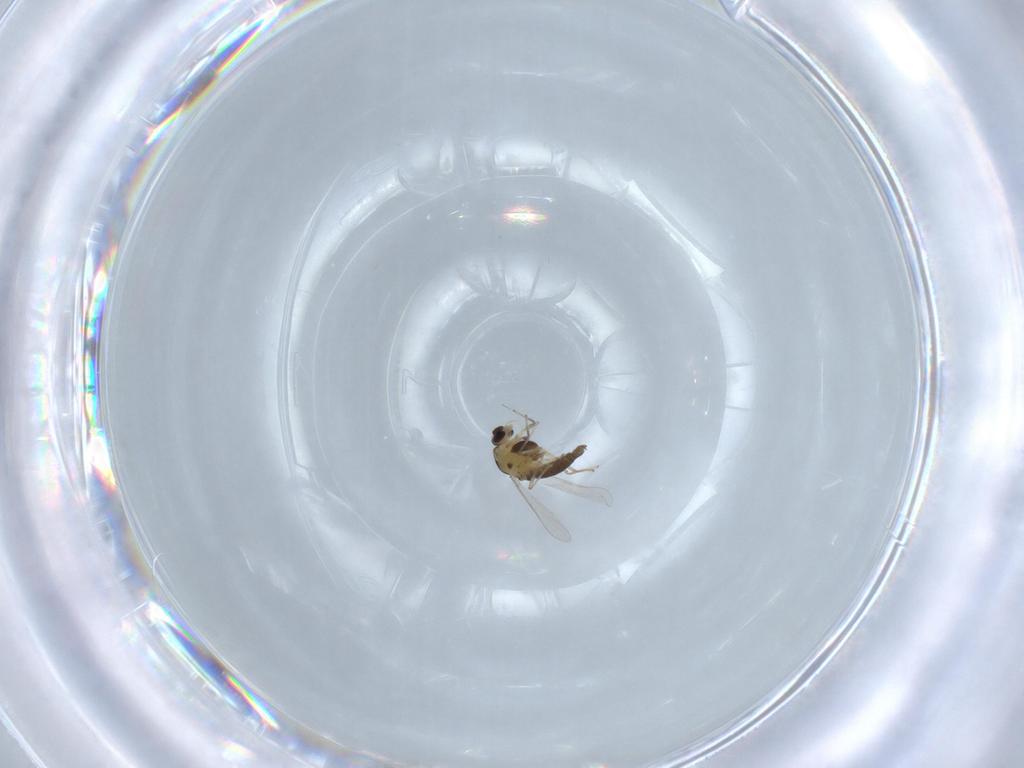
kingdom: Animalia
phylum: Arthropoda
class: Insecta
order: Diptera
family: Chironomidae
